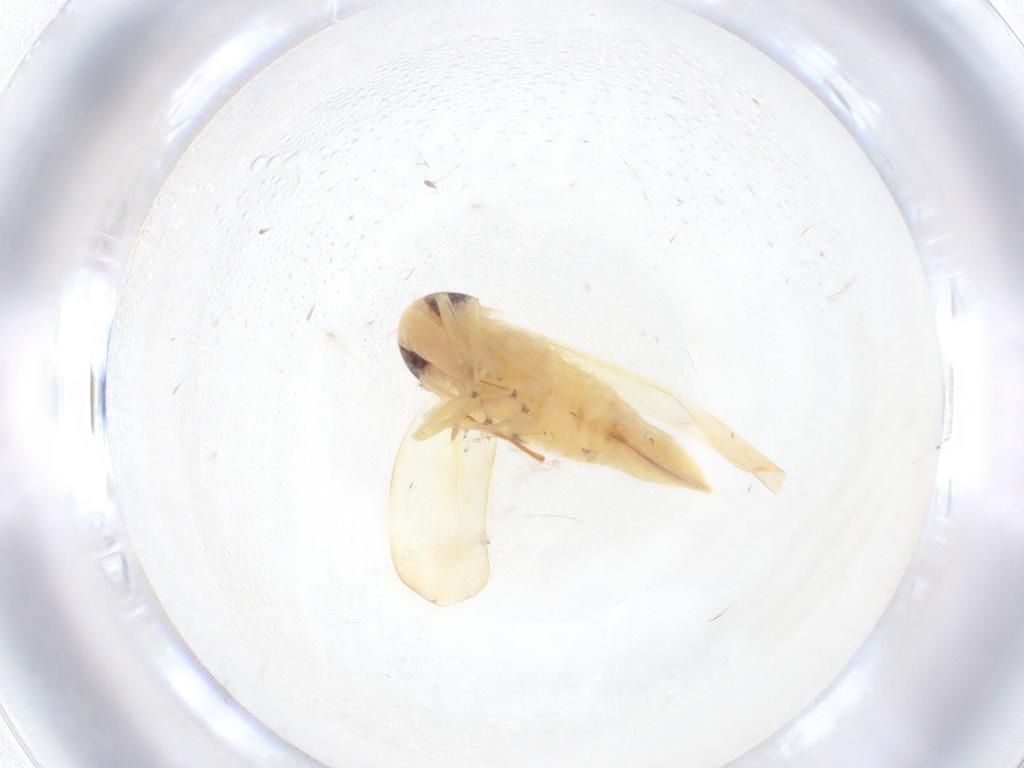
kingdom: Animalia
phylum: Arthropoda
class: Insecta
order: Hemiptera
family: Cicadellidae
